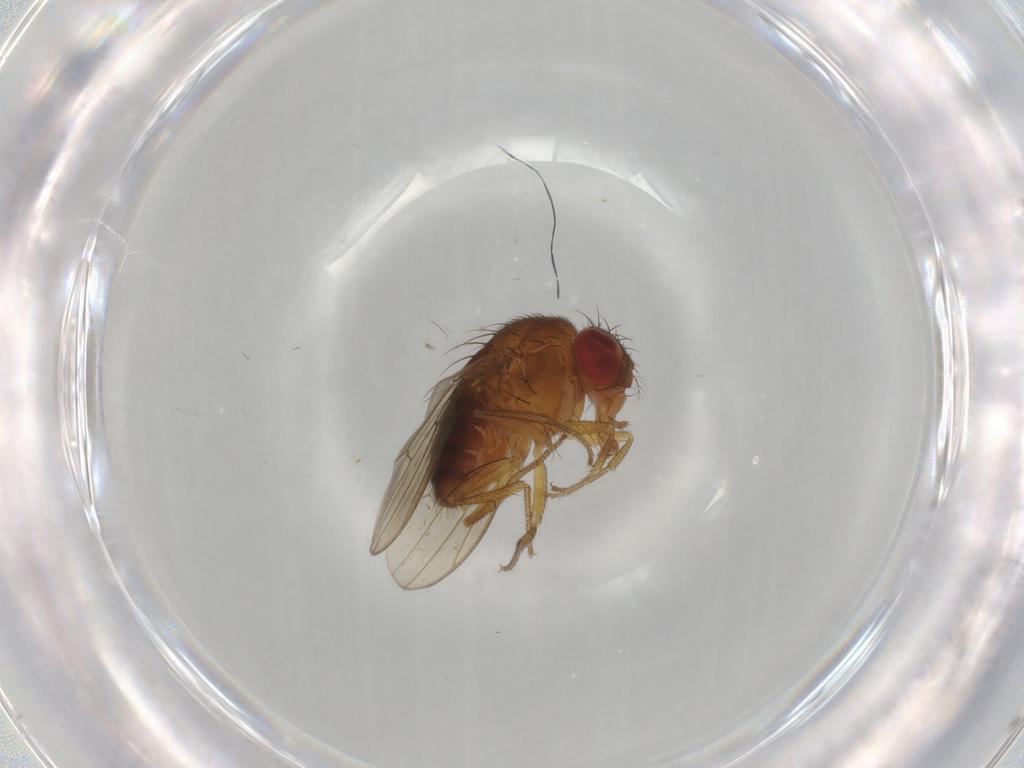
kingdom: Animalia
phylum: Arthropoda
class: Insecta
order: Diptera
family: Drosophilidae
